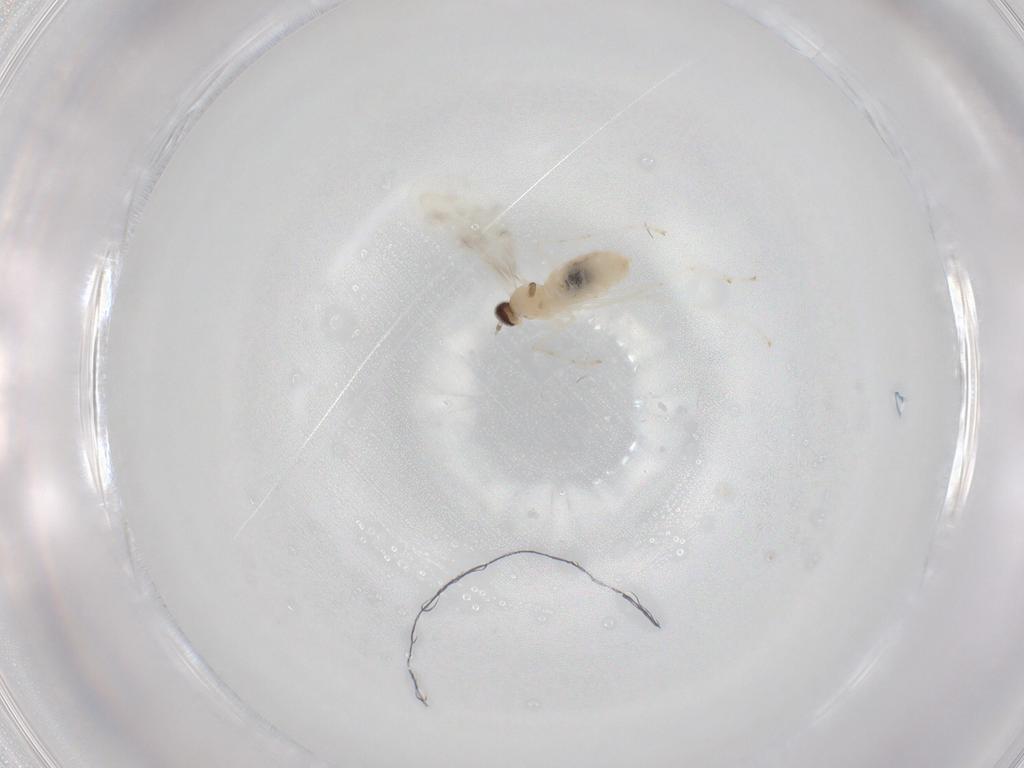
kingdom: Animalia
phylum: Arthropoda
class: Insecta
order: Diptera
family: Cecidomyiidae
